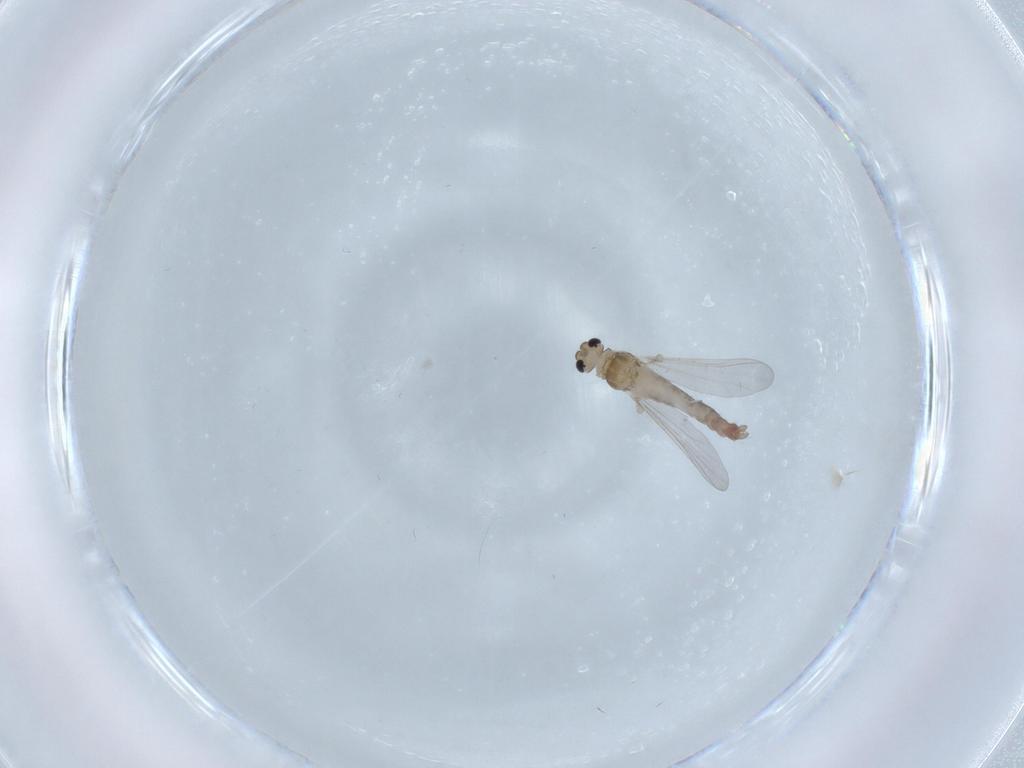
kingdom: Animalia
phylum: Arthropoda
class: Insecta
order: Diptera
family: Chironomidae
